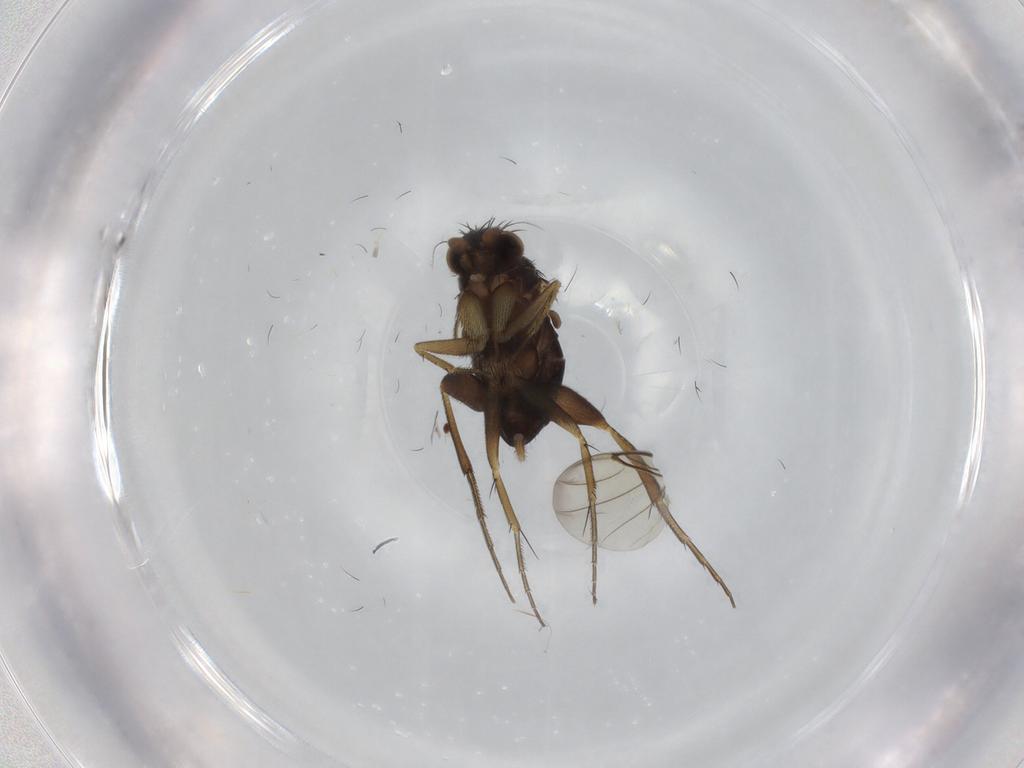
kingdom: Animalia
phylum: Arthropoda
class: Insecta
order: Diptera
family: Phoridae
